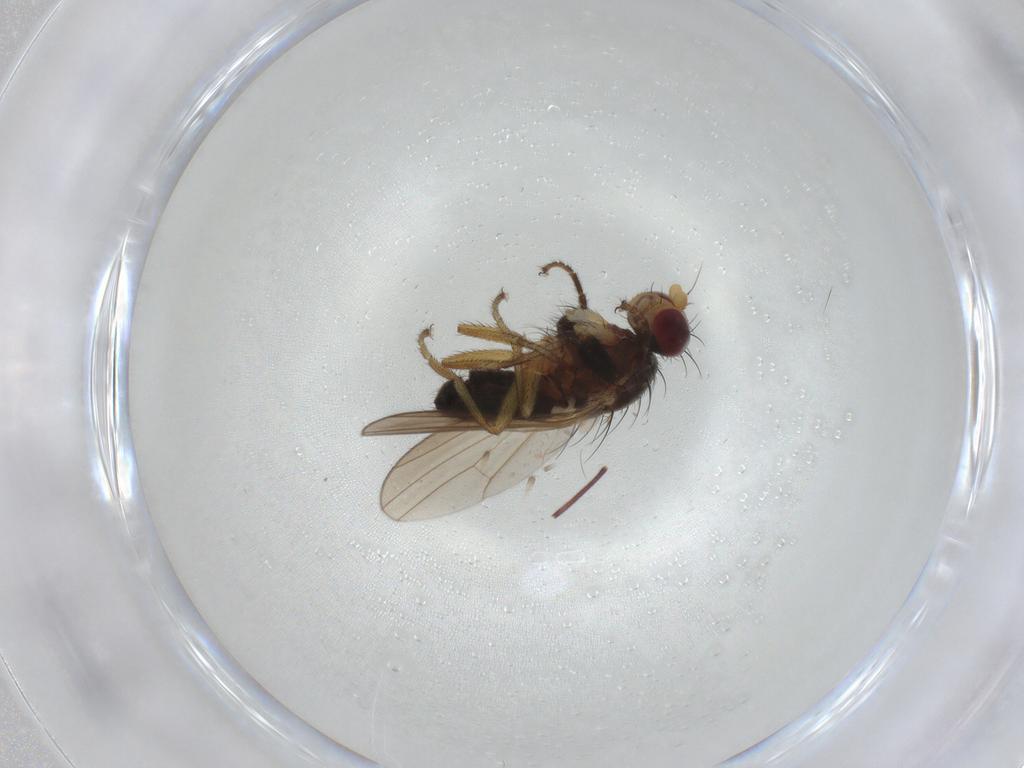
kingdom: Animalia
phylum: Arthropoda
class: Insecta
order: Diptera
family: Heleomyzidae
